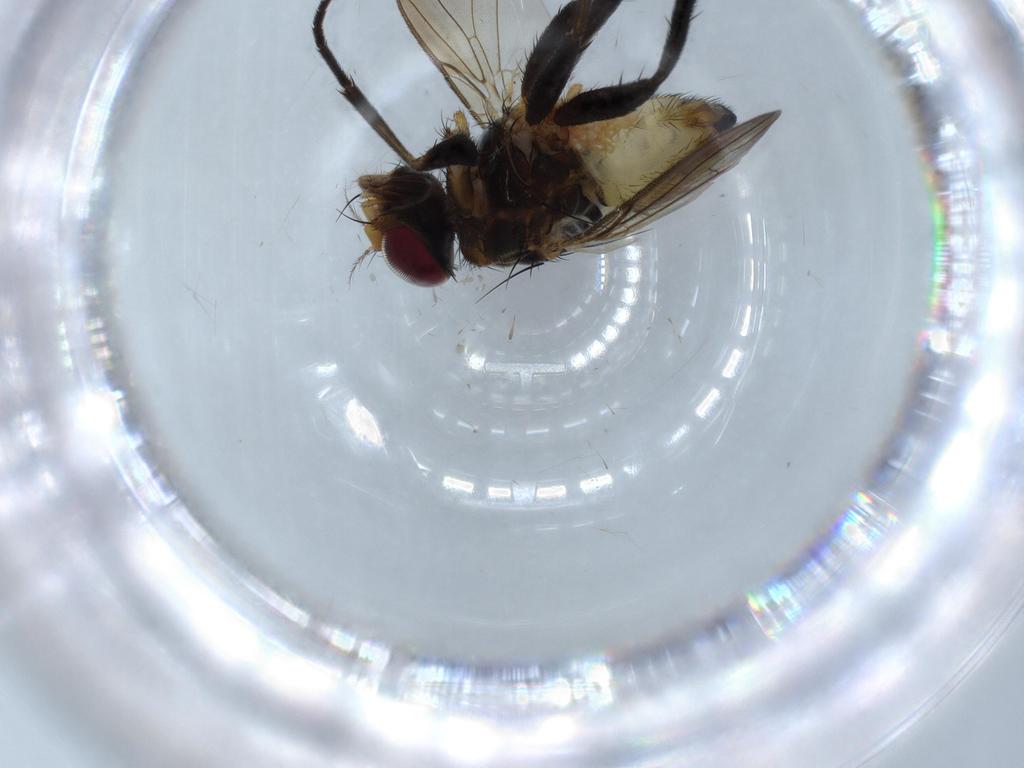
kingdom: Animalia
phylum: Arthropoda
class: Insecta
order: Diptera
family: Anthomyiidae
